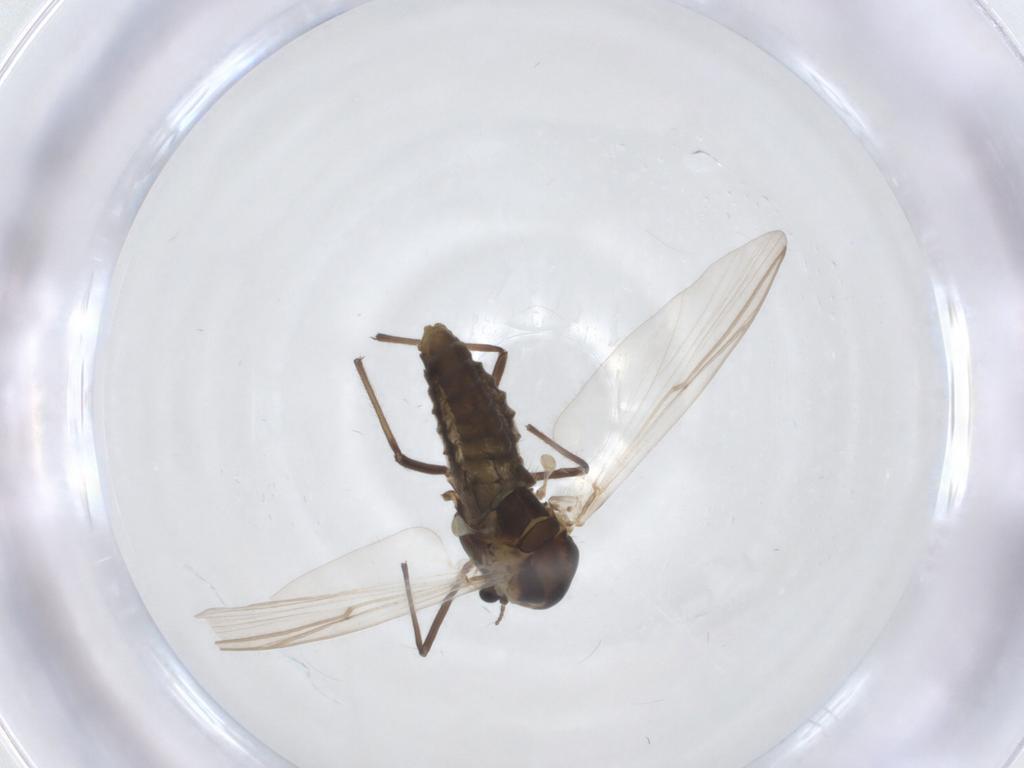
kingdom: Animalia
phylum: Arthropoda
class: Insecta
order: Diptera
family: Chironomidae
